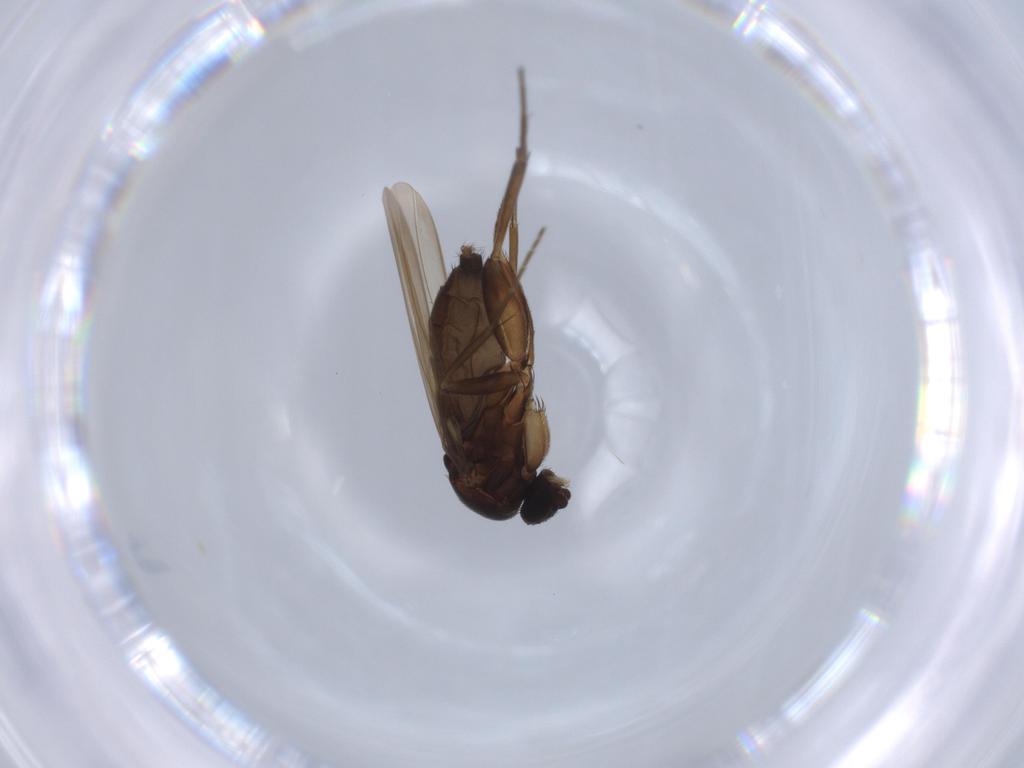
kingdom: Animalia
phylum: Arthropoda
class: Insecta
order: Diptera
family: Phoridae
